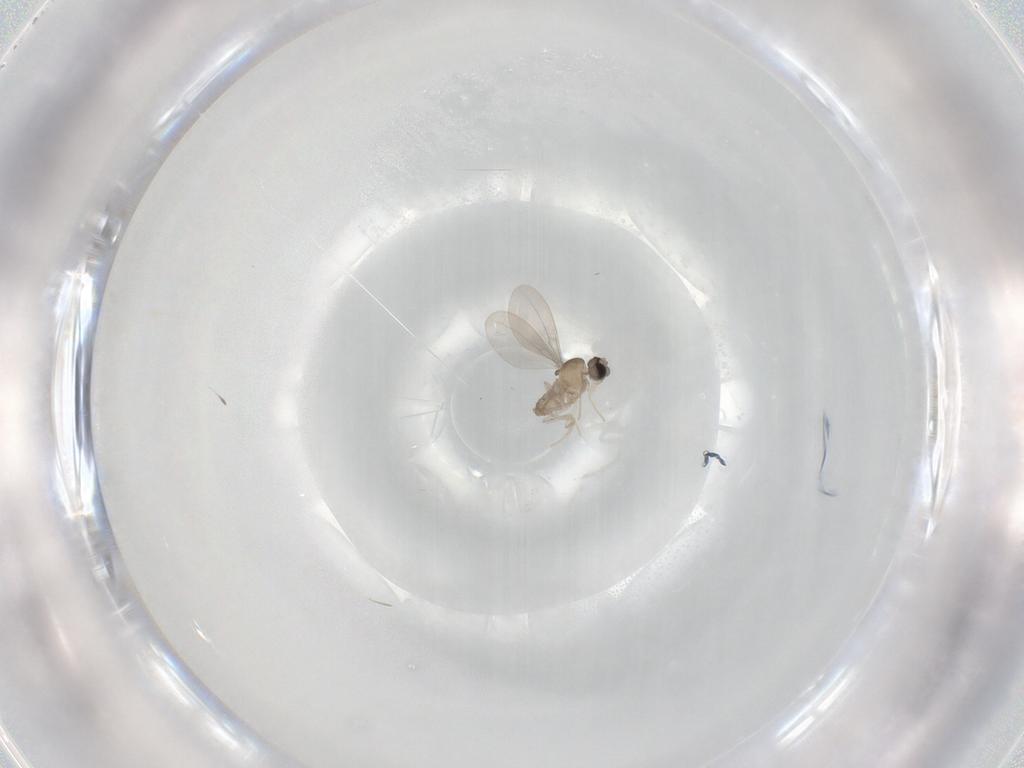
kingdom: Animalia
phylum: Arthropoda
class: Insecta
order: Diptera
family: Cecidomyiidae
